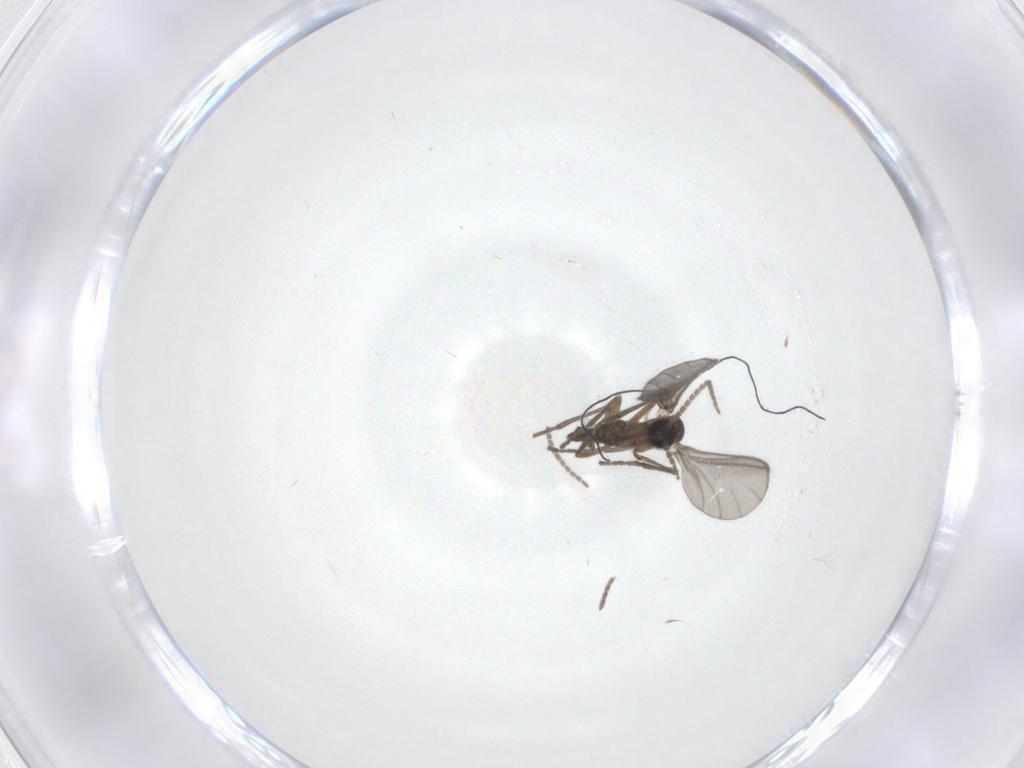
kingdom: Animalia
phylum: Arthropoda
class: Insecta
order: Diptera
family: Sciaridae
